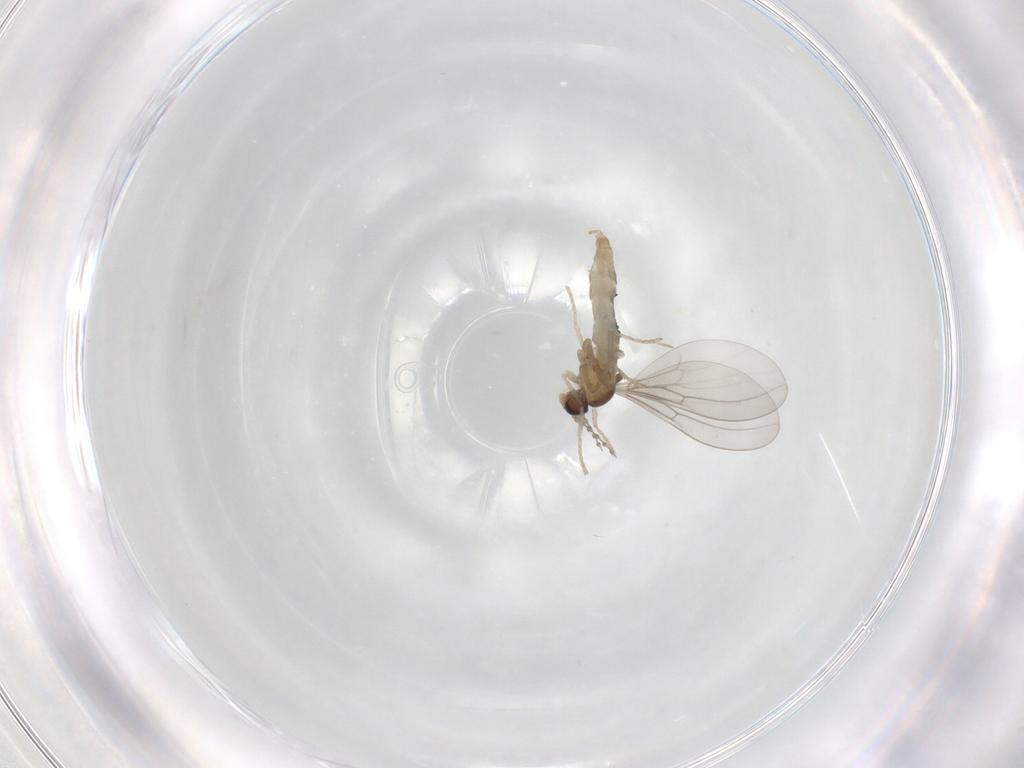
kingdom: Animalia
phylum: Arthropoda
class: Insecta
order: Diptera
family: Cecidomyiidae
